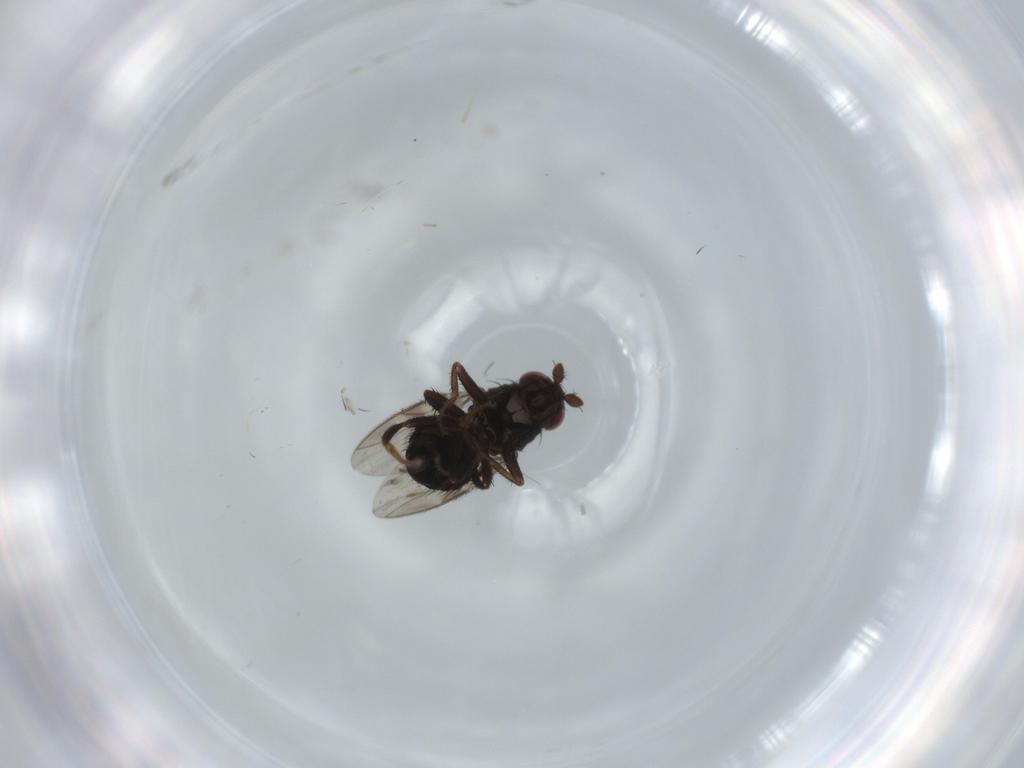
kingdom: Animalia
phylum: Arthropoda
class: Insecta
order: Diptera
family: Sphaeroceridae
